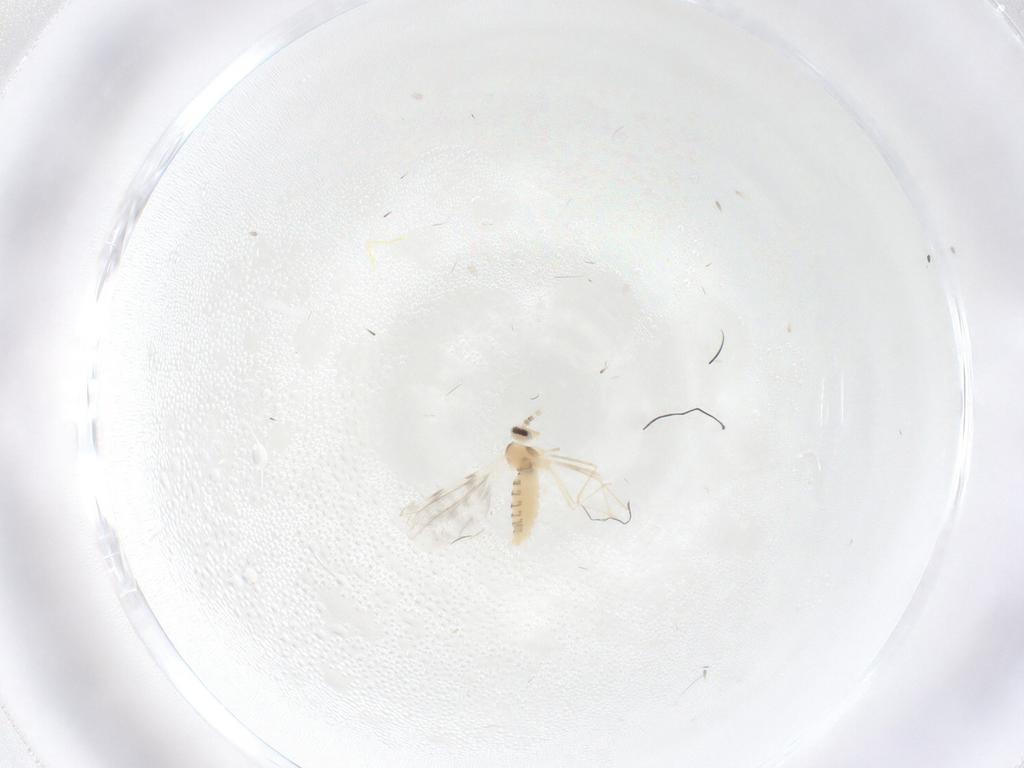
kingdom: Animalia
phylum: Arthropoda
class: Insecta
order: Diptera
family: Cecidomyiidae
